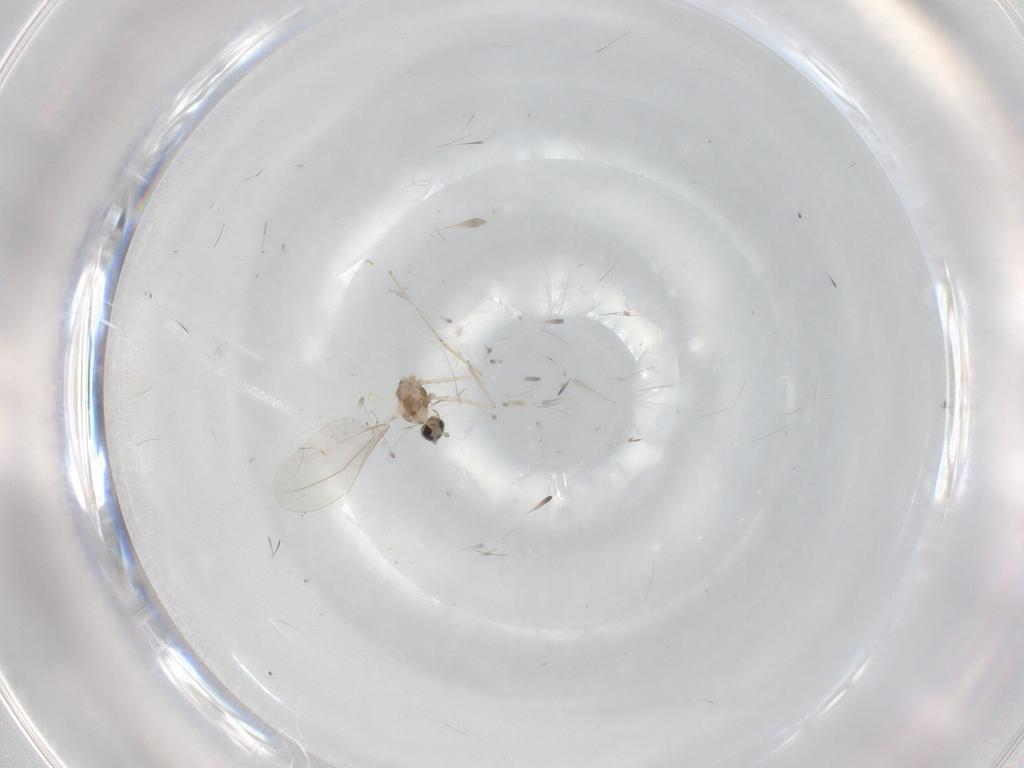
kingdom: Animalia
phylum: Arthropoda
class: Insecta
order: Diptera
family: Cecidomyiidae
